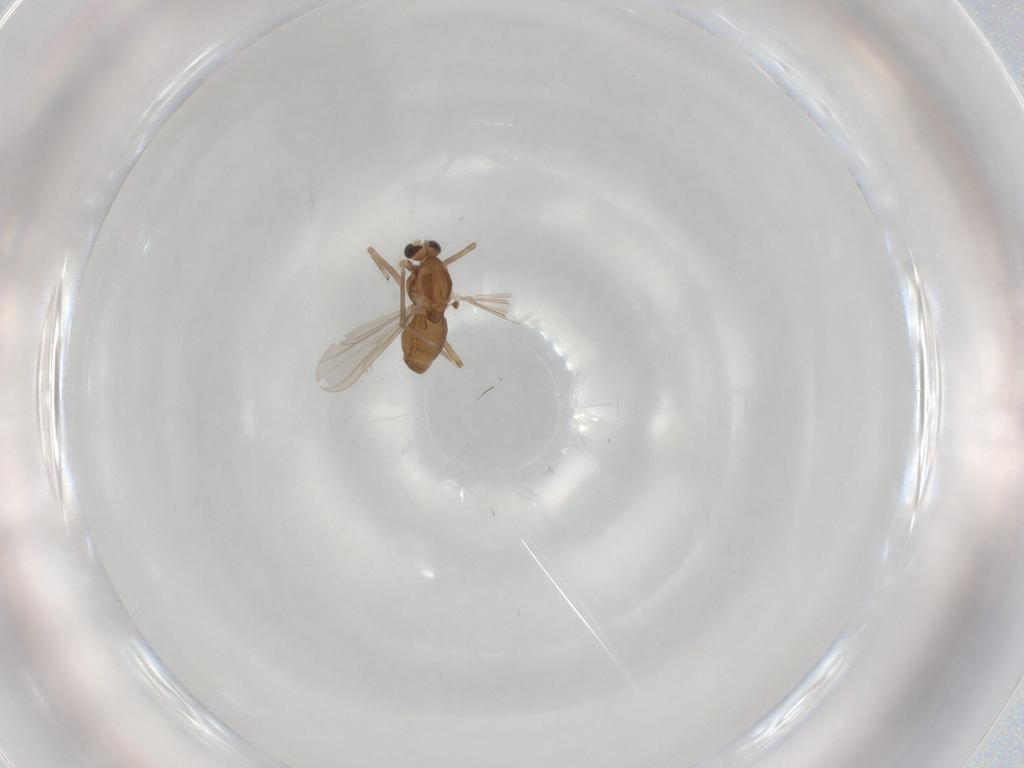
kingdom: Animalia
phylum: Arthropoda
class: Insecta
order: Diptera
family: Chironomidae
